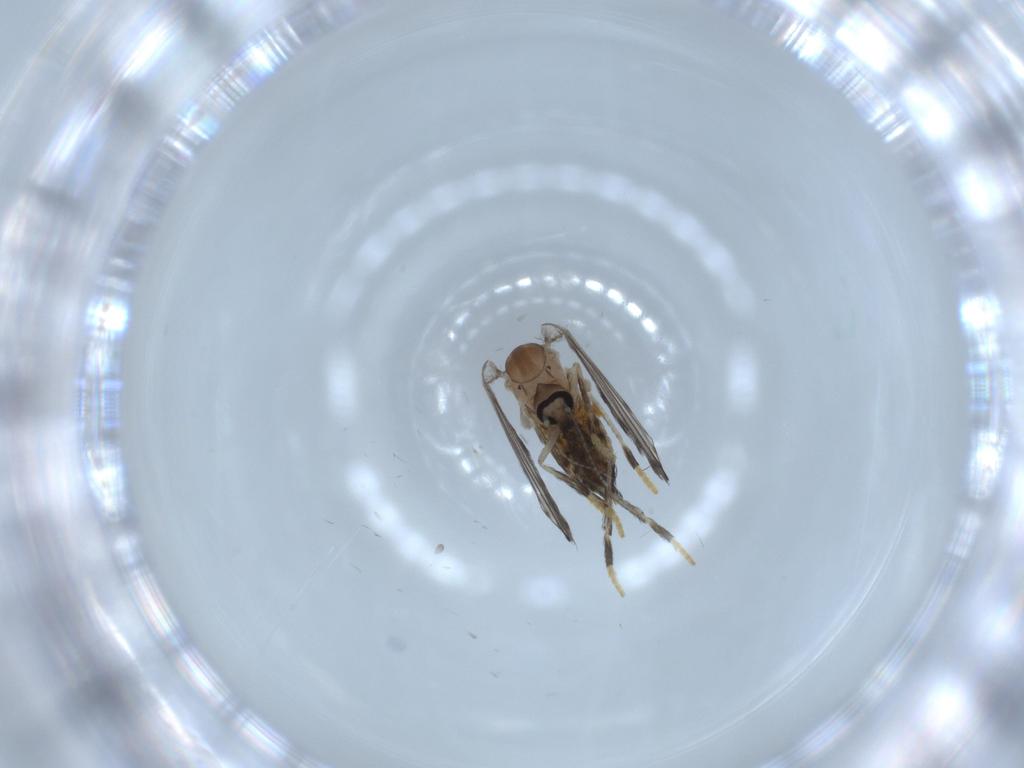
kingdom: Animalia
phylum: Arthropoda
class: Insecta
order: Diptera
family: Psychodidae
